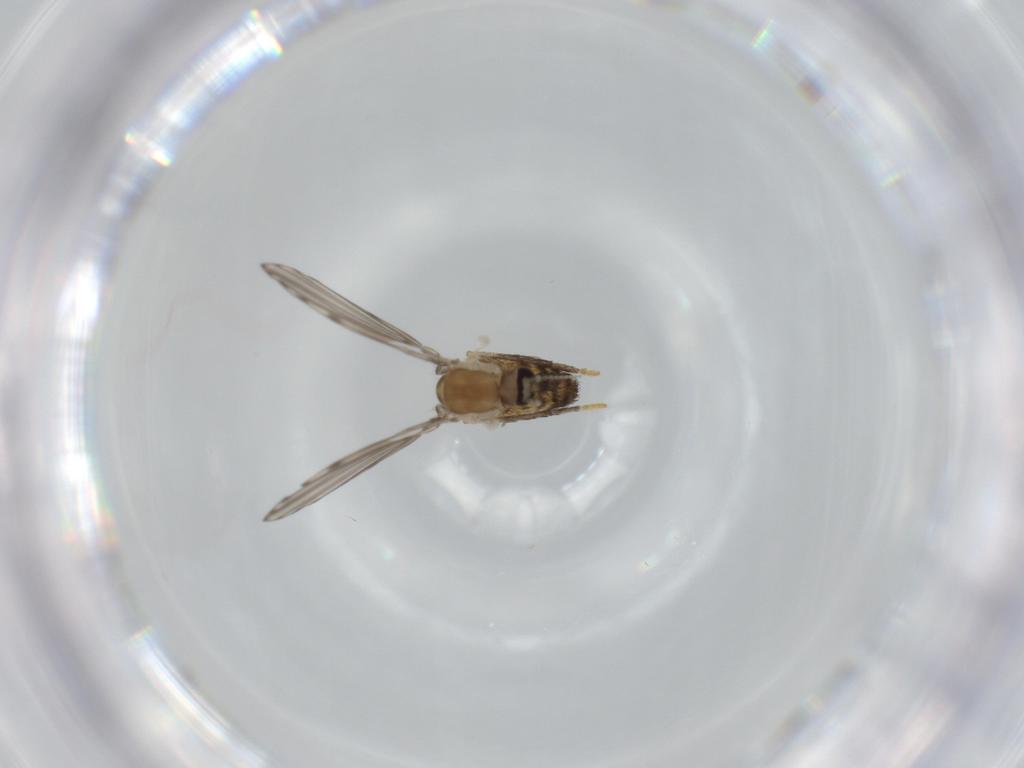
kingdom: Animalia
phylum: Arthropoda
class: Insecta
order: Diptera
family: Psychodidae
